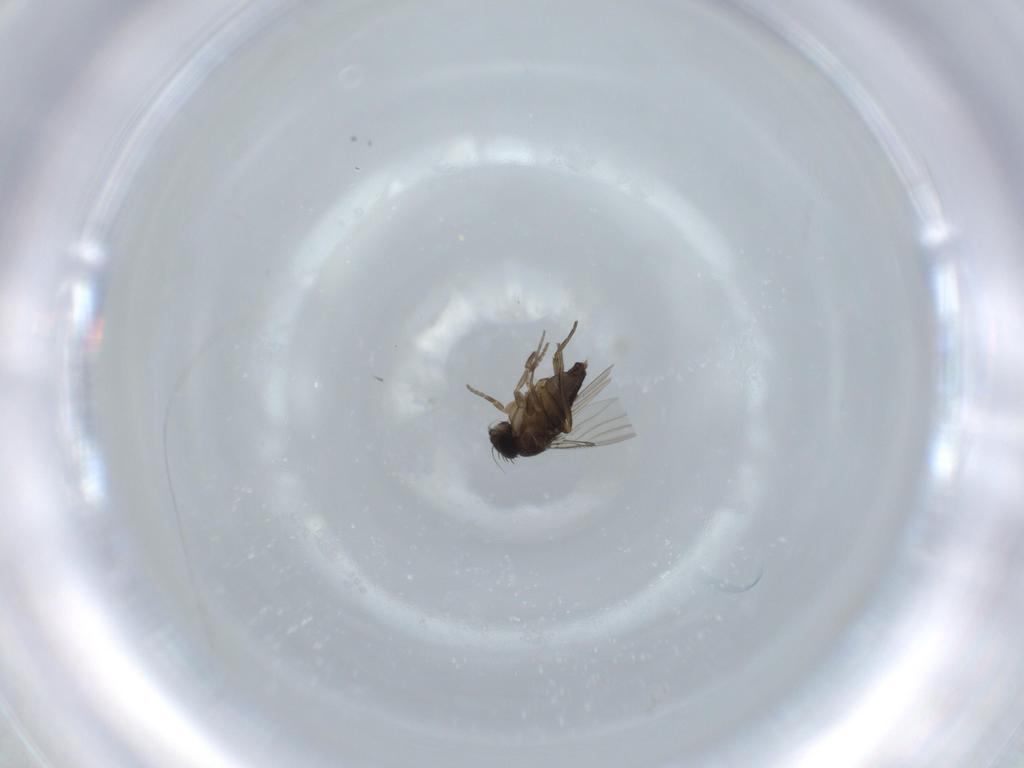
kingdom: Animalia
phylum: Arthropoda
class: Insecta
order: Diptera
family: Phoridae
